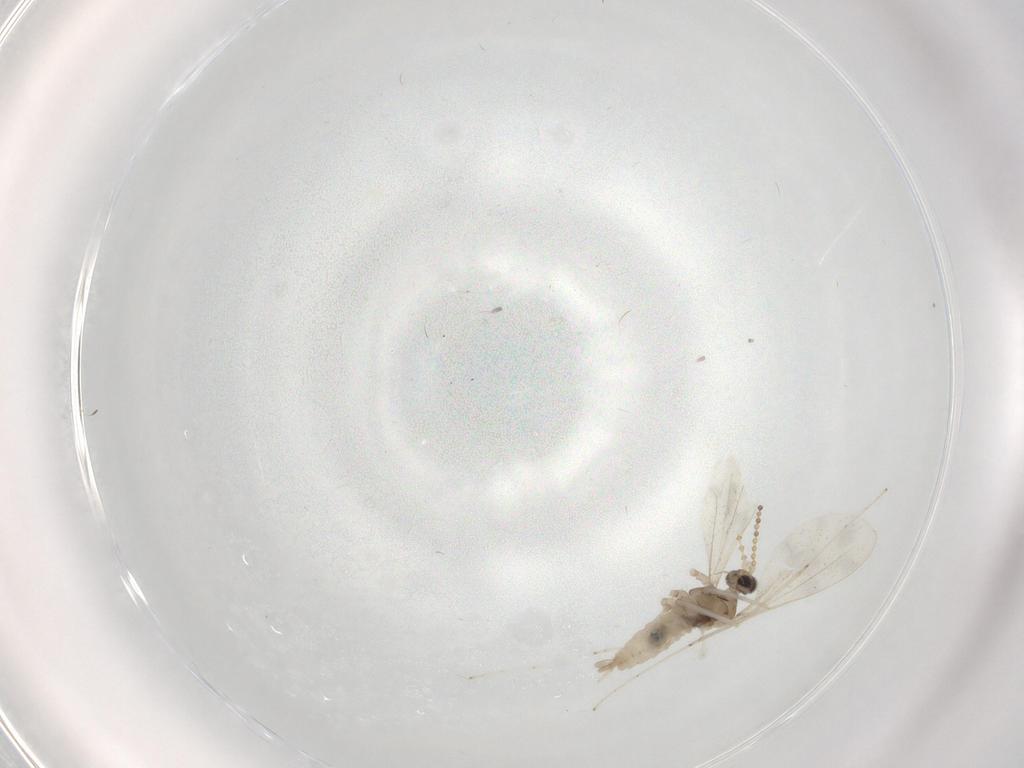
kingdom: Animalia
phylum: Arthropoda
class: Insecta
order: Diptera
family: Cecidomyiidae
